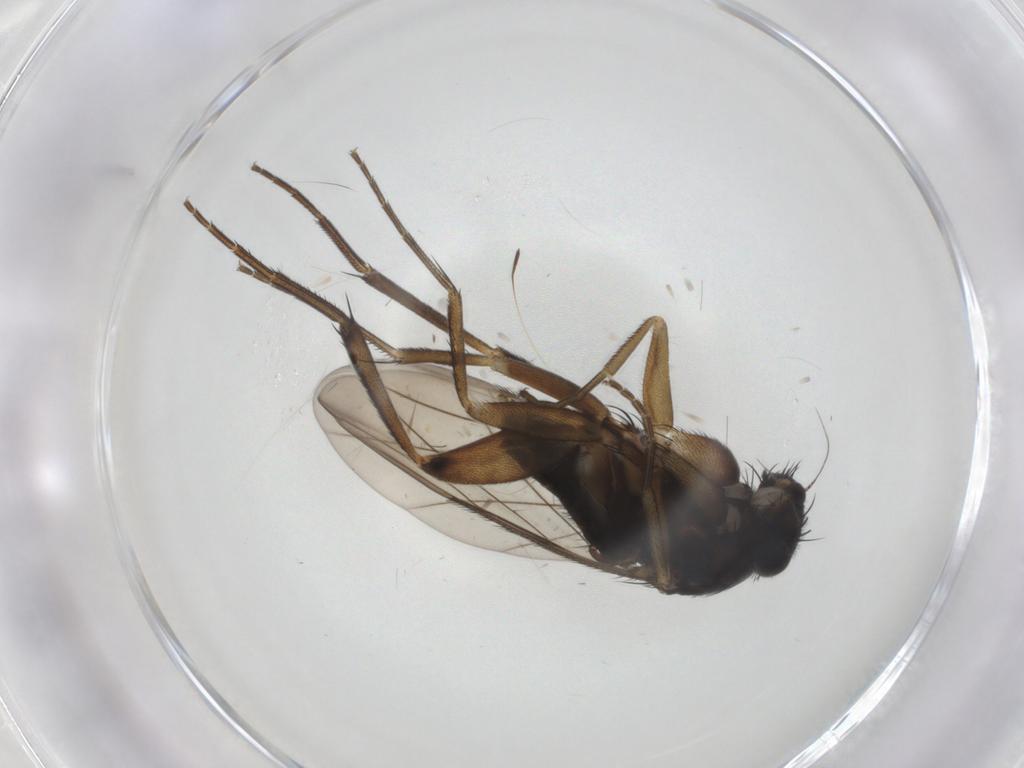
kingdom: Animalia
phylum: Arthropoda
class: Insecta
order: Diptera
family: Phoridae
